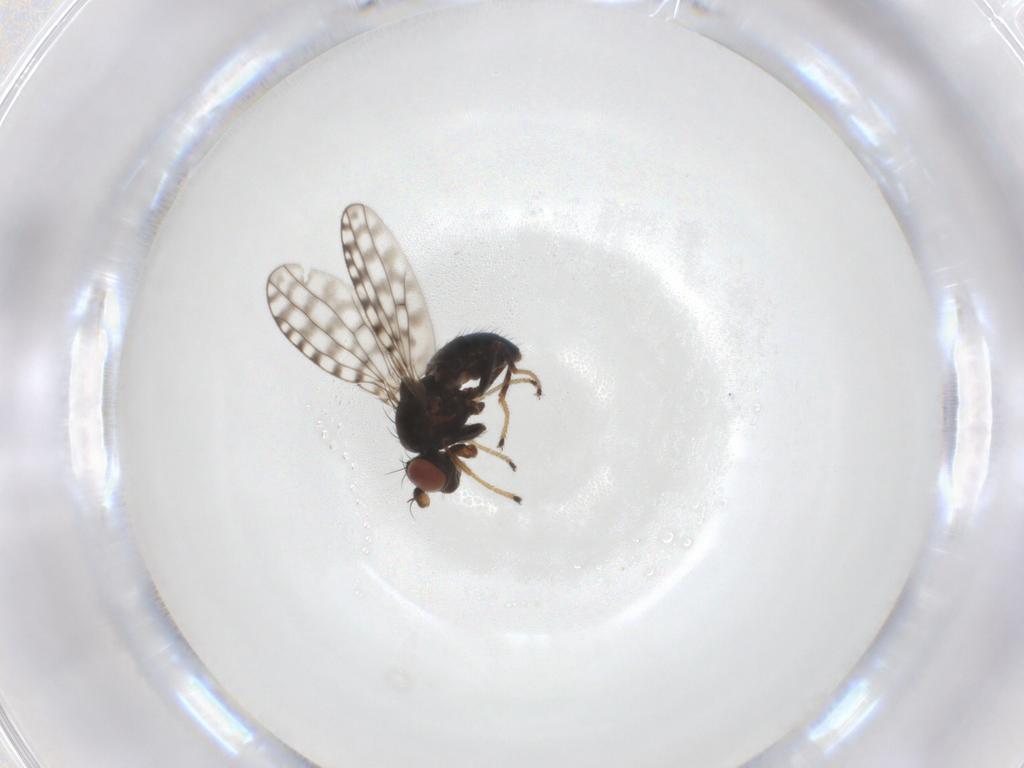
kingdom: Animalia
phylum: Arthropoda
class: Insecta
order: Diptera
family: Ephydridae
